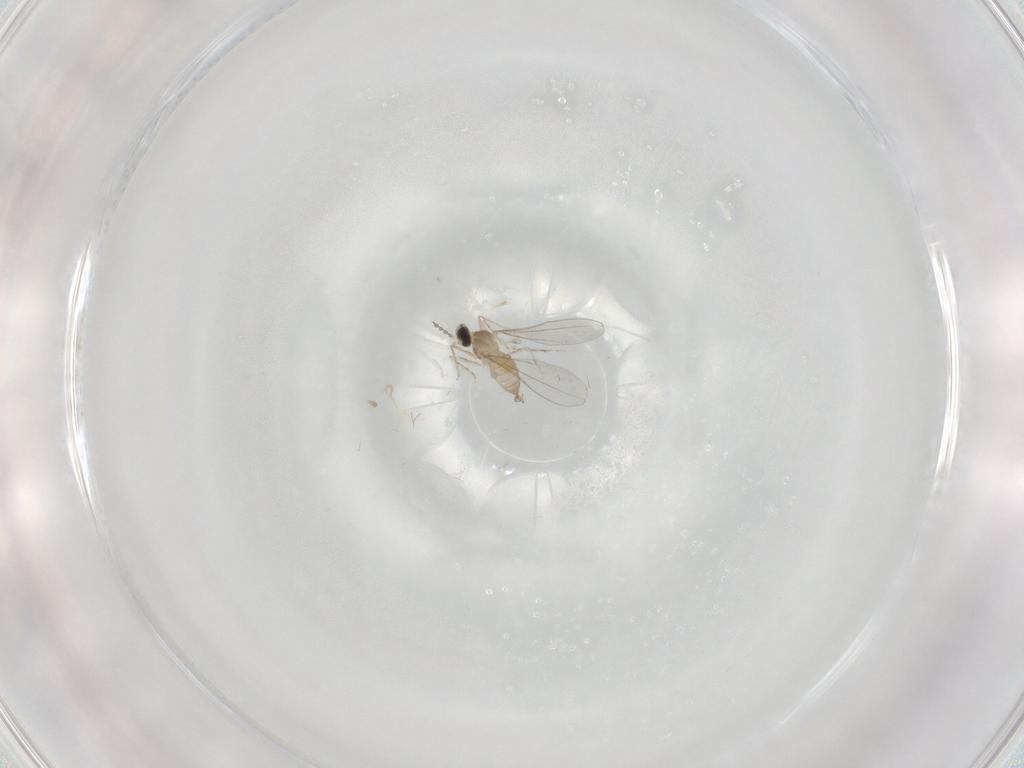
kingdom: Animalia
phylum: Arthropoda
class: Insecta
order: Diptera
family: Cecidomyiidae
